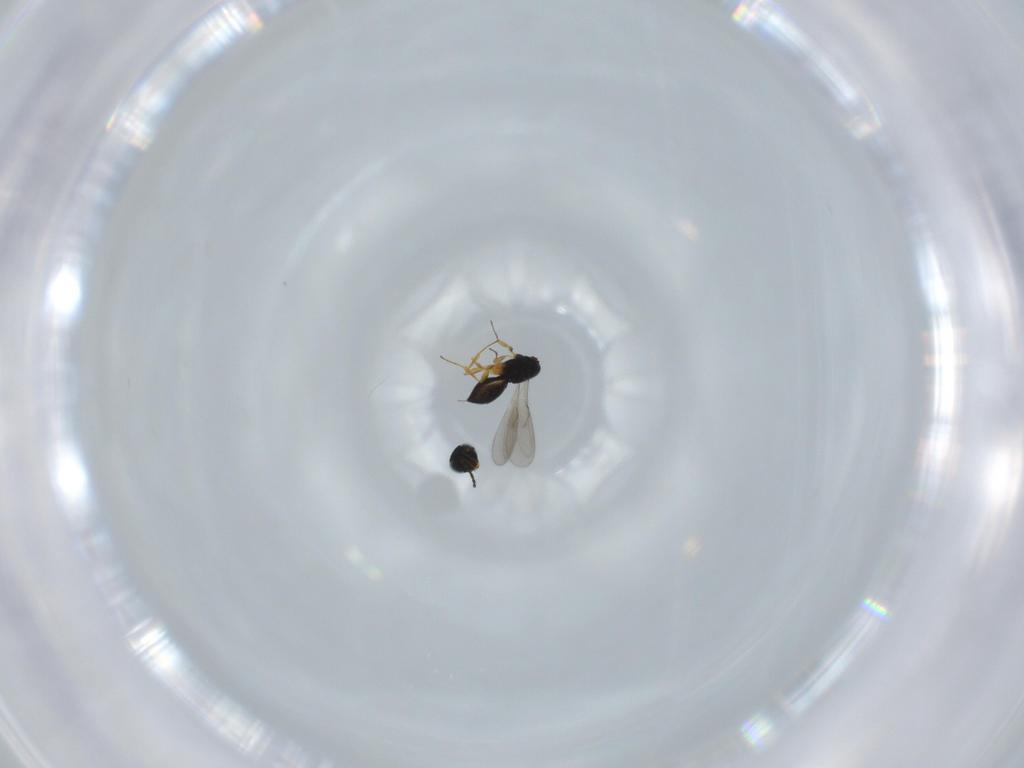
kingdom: Animalia
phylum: Arthropoda
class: Insecta
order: Hymenoptera
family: Scelionidae
